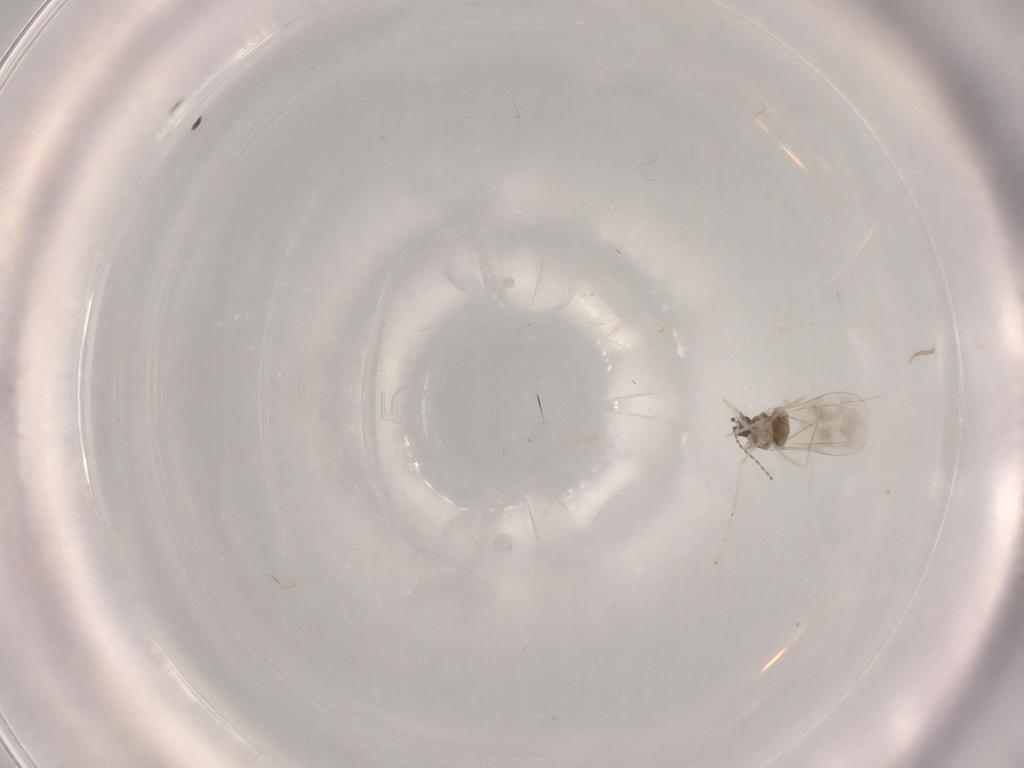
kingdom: Animalia
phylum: Arthropoda
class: Insecta
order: Diptera
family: Cecidomyiidae
